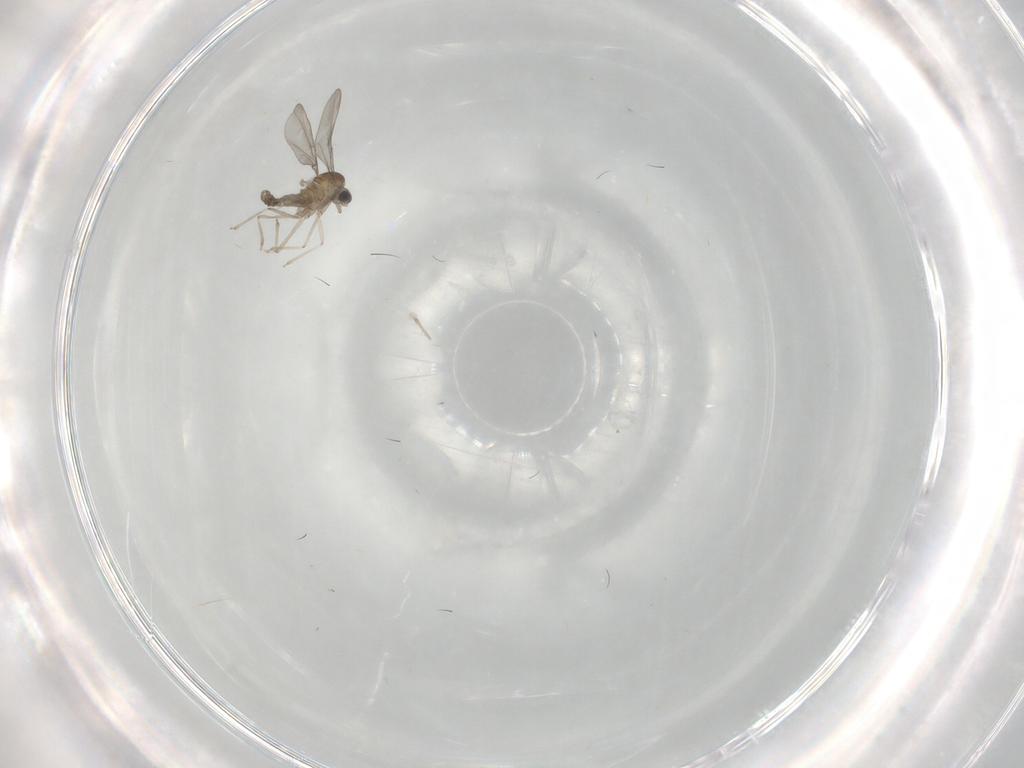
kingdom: Animalia
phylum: Arthropoda
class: Insecta
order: Diptera
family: Cecidomyiidae
